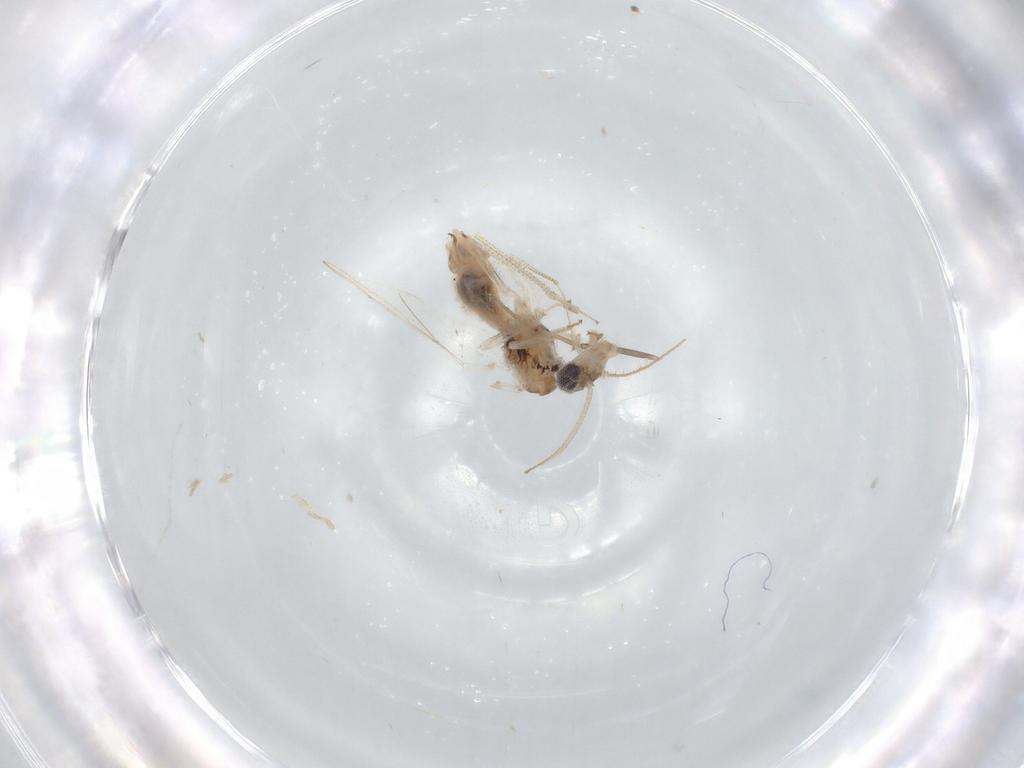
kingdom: Animalia
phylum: Arthropoda
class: Insecta
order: Psocodea
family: Caeciliusidae
